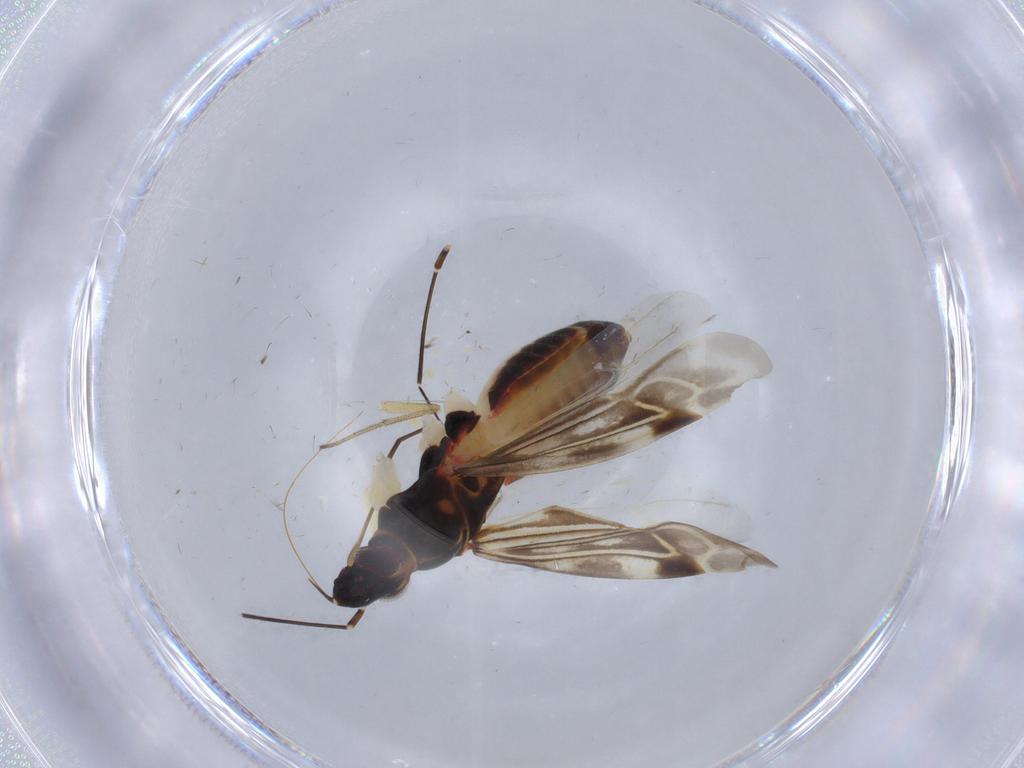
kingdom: Animalia
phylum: Arthropoda
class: Insecta
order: Hemiptera
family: Miridae
